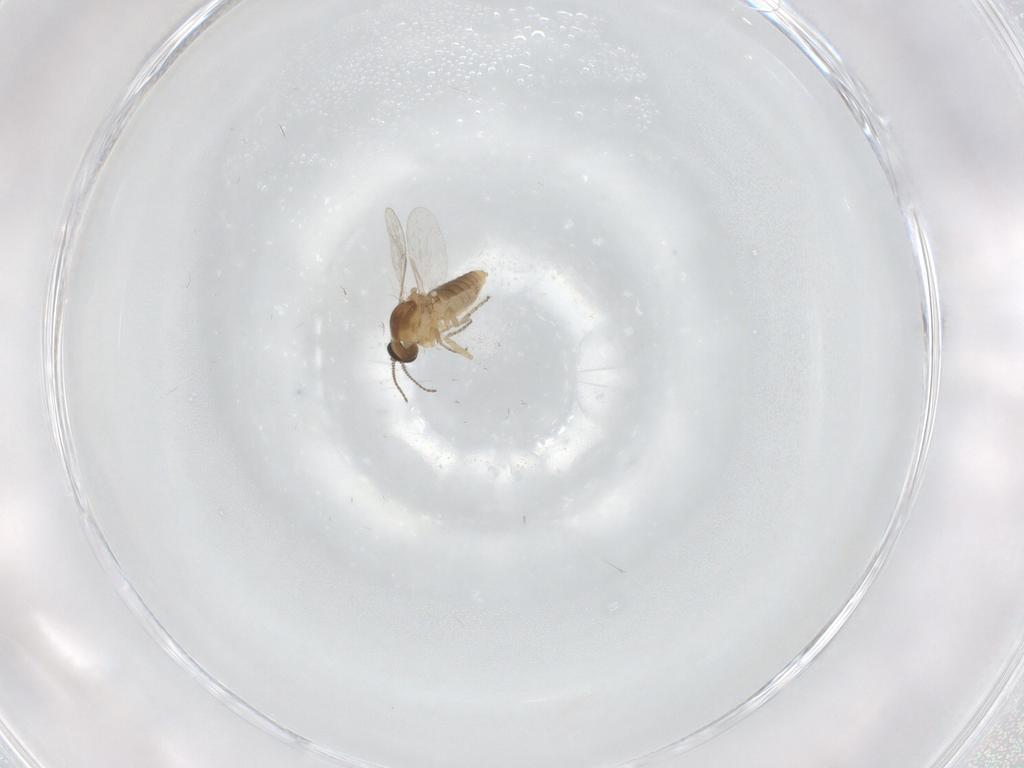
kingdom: Animalia
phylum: Arthropoda
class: Insecta
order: Diptera
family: Ceratopogonidae
